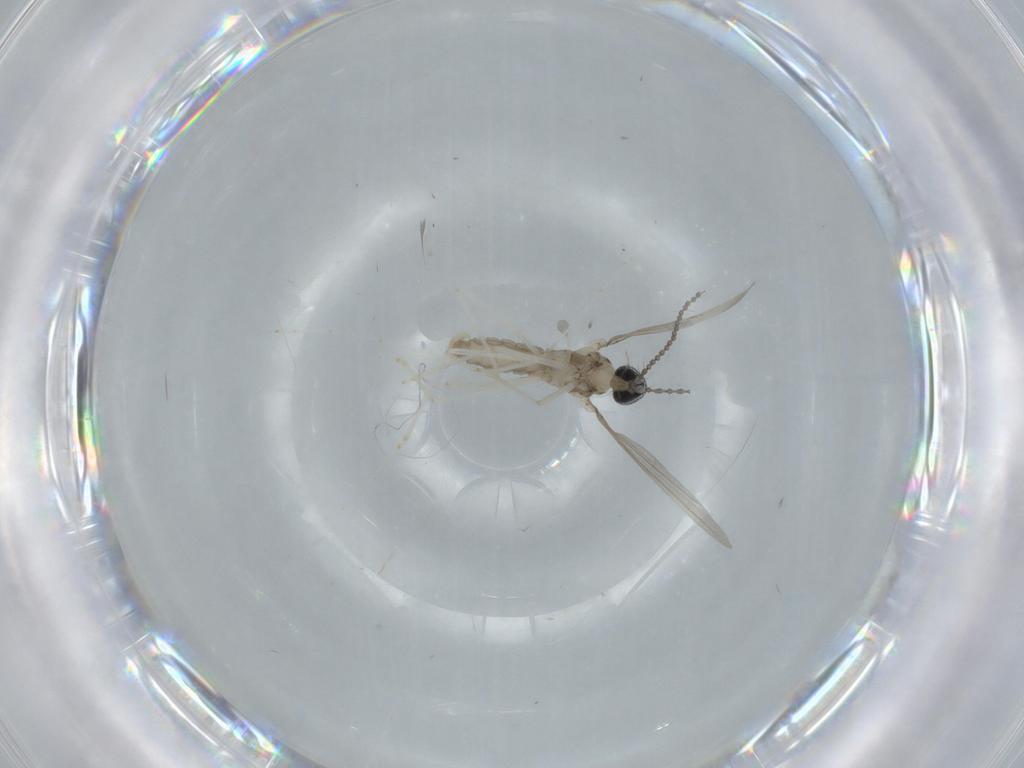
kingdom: Animalia
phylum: Arthropoda
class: Insecta
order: Diptera
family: Cecidomyiidae
